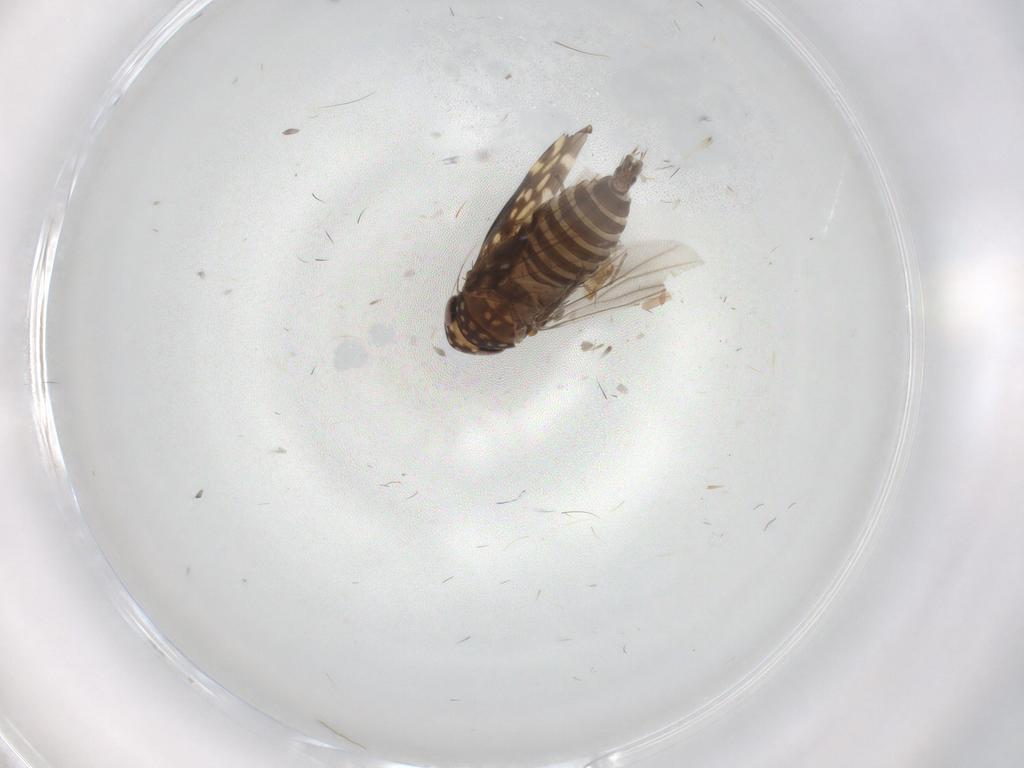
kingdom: Animalia
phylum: Arthropoda
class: Insecta
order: Hemiptera
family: Cicadellidae
